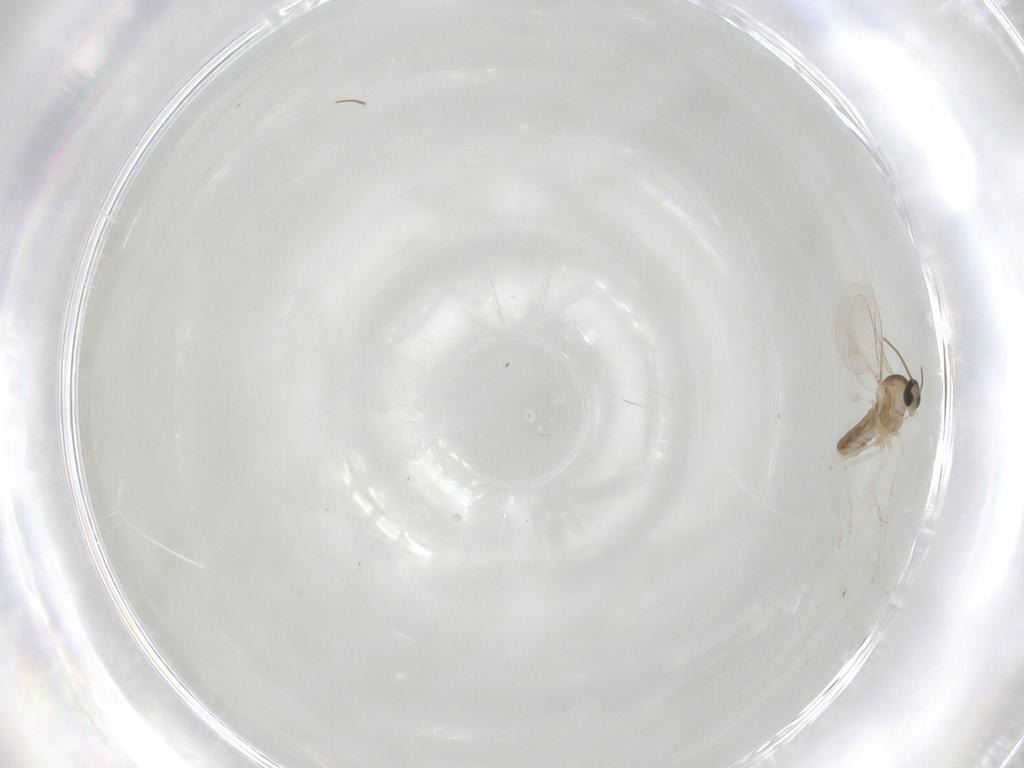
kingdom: Animalia
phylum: Arthropoda
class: Insecta
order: Diptera
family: Cecidomyiidae
